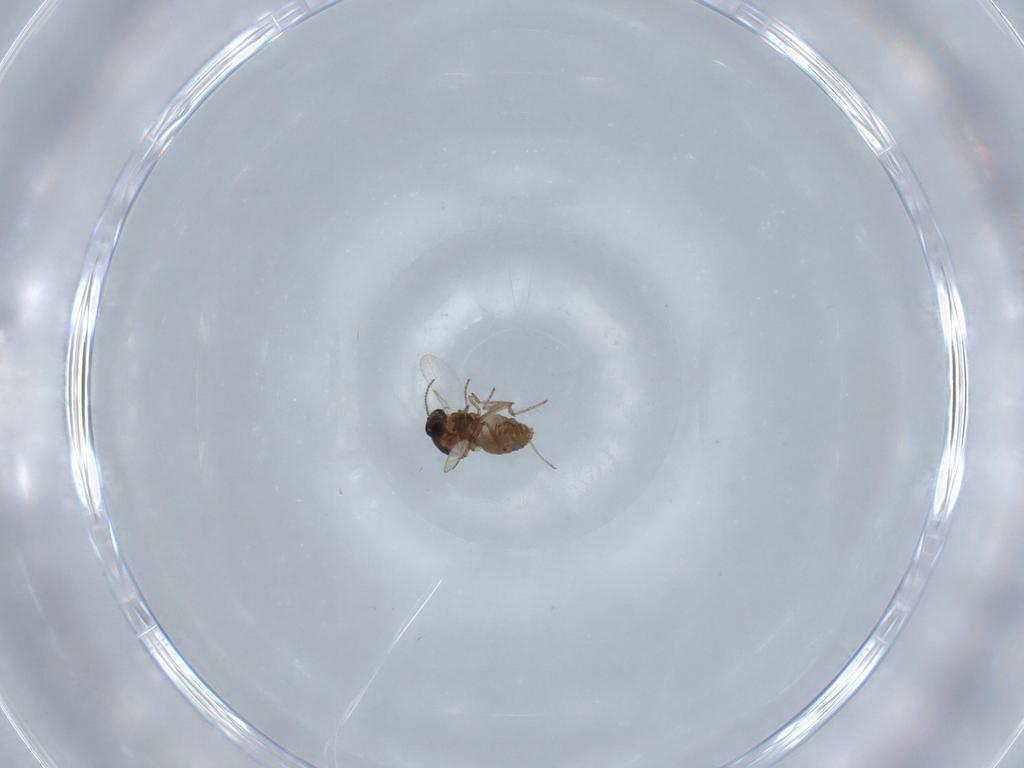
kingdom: Animalia
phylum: Arthropoda
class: Insecta
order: Diptera
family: Ceratopogonidae
